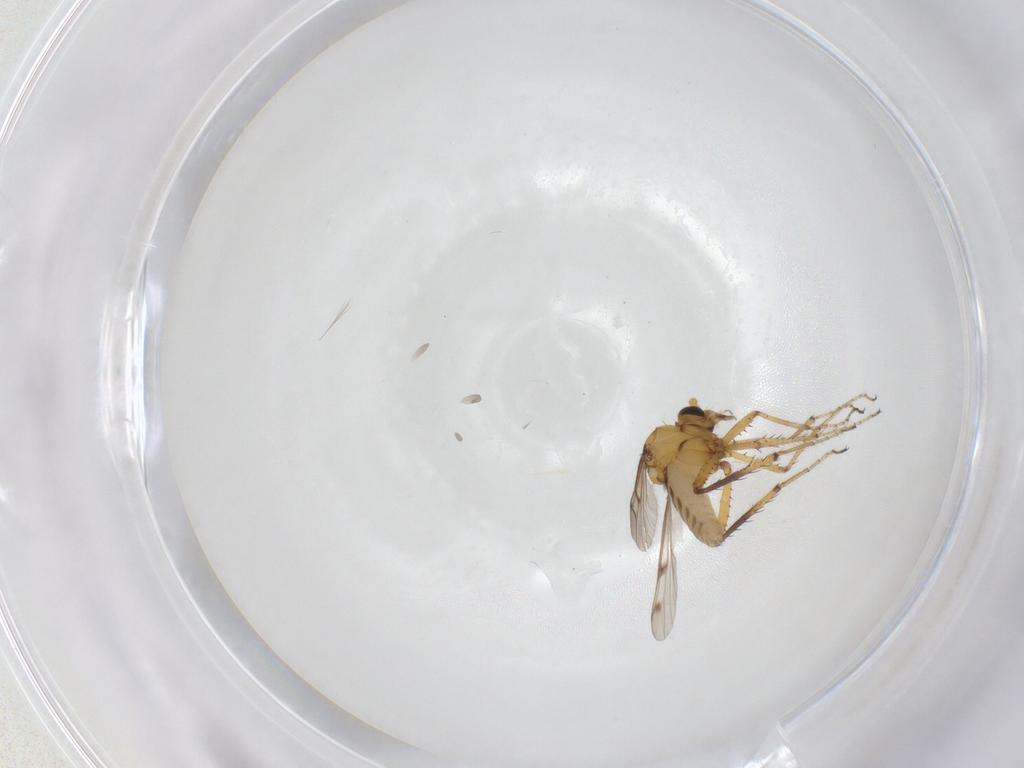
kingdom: Animalia
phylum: Arthropoda
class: Insecta
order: Diptera
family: Ceratopogonidae
